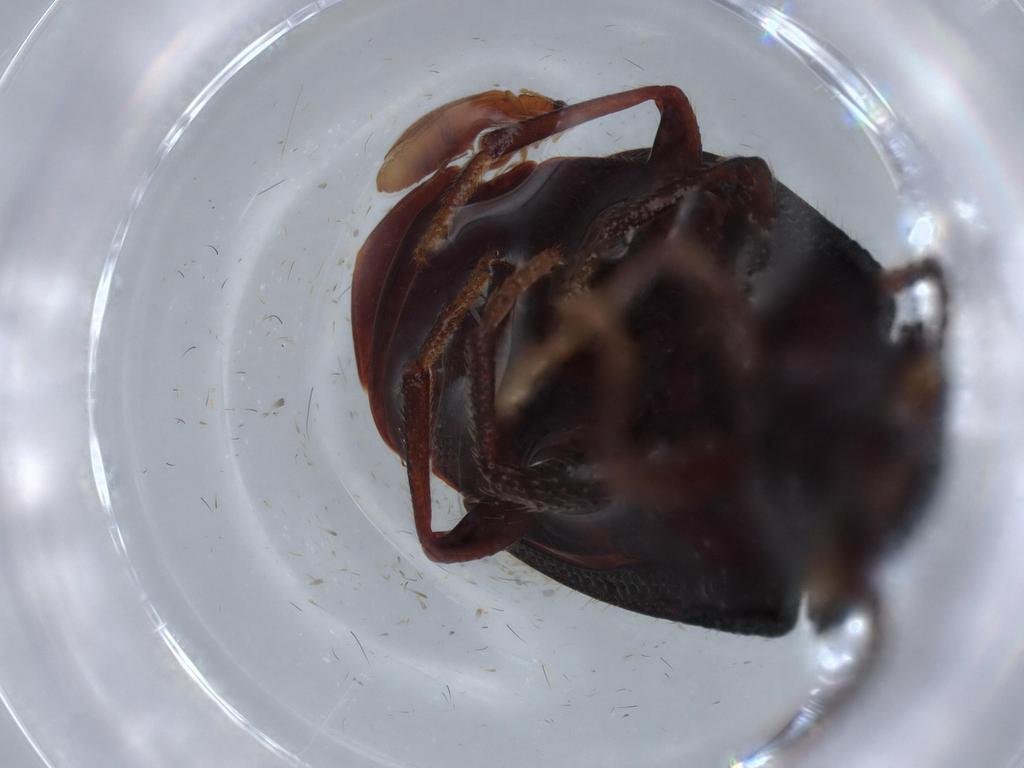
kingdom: Animalia
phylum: Arthropoda
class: Insecta
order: Coleoptera
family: Latridiidae
